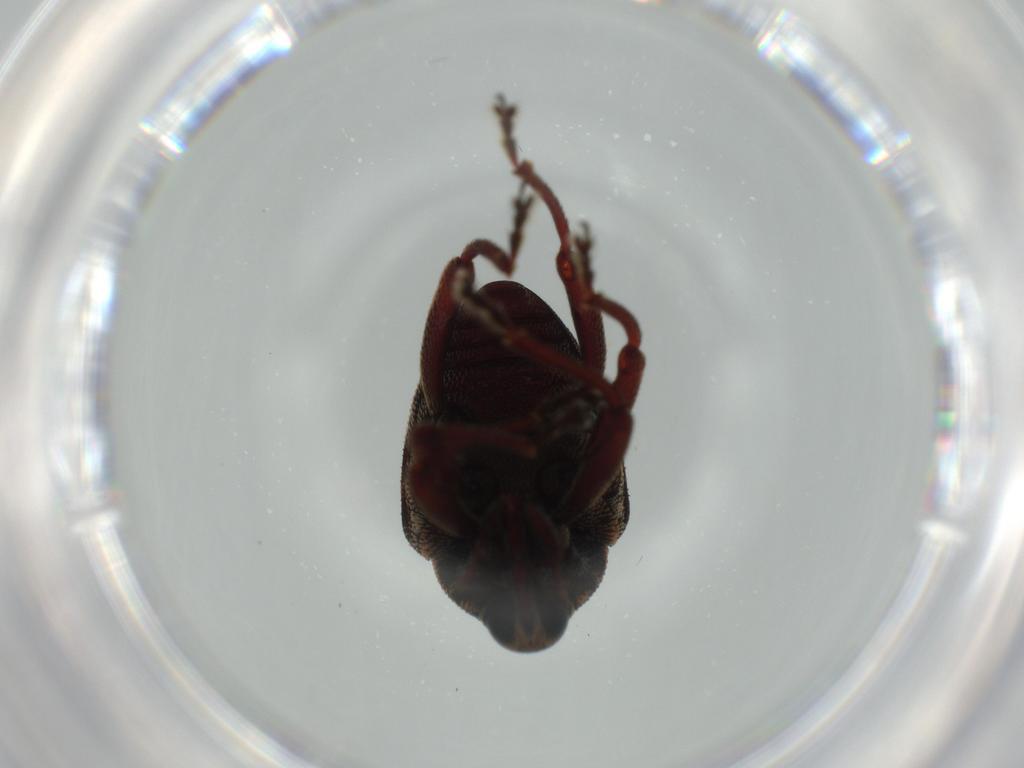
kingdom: Animalia
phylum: Arthropoda
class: Insecta
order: Coleoptera
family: Curculionidae
